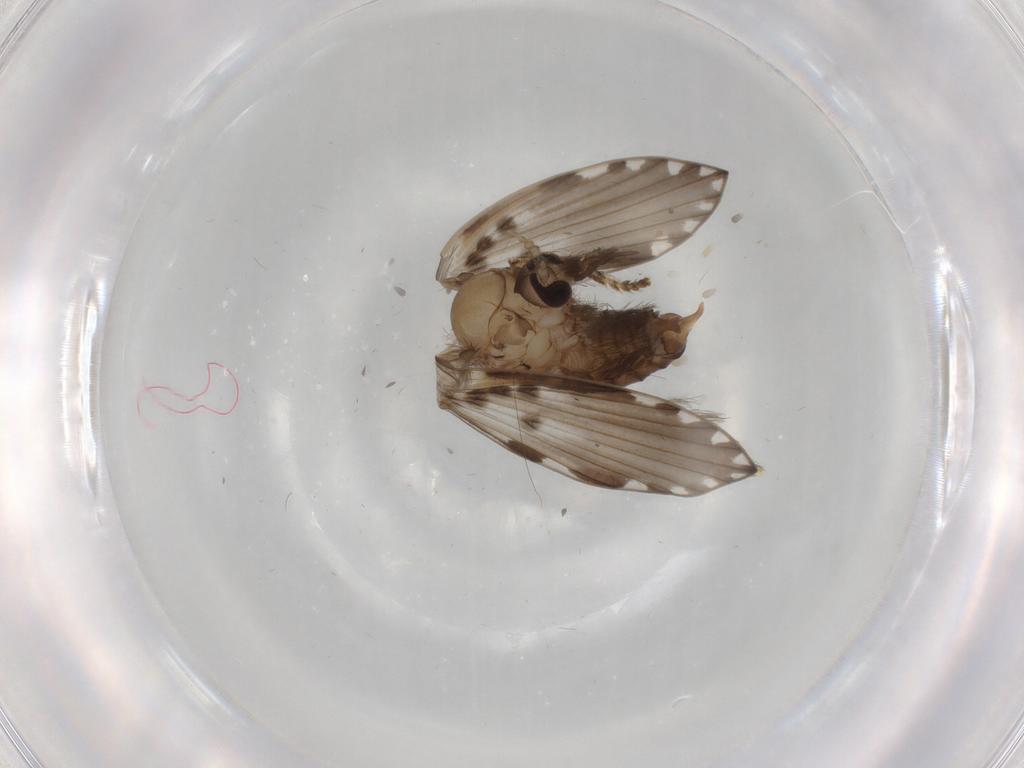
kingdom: Animalia
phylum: Arthropoda
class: Insecta
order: Diptera
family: Psychodidae
